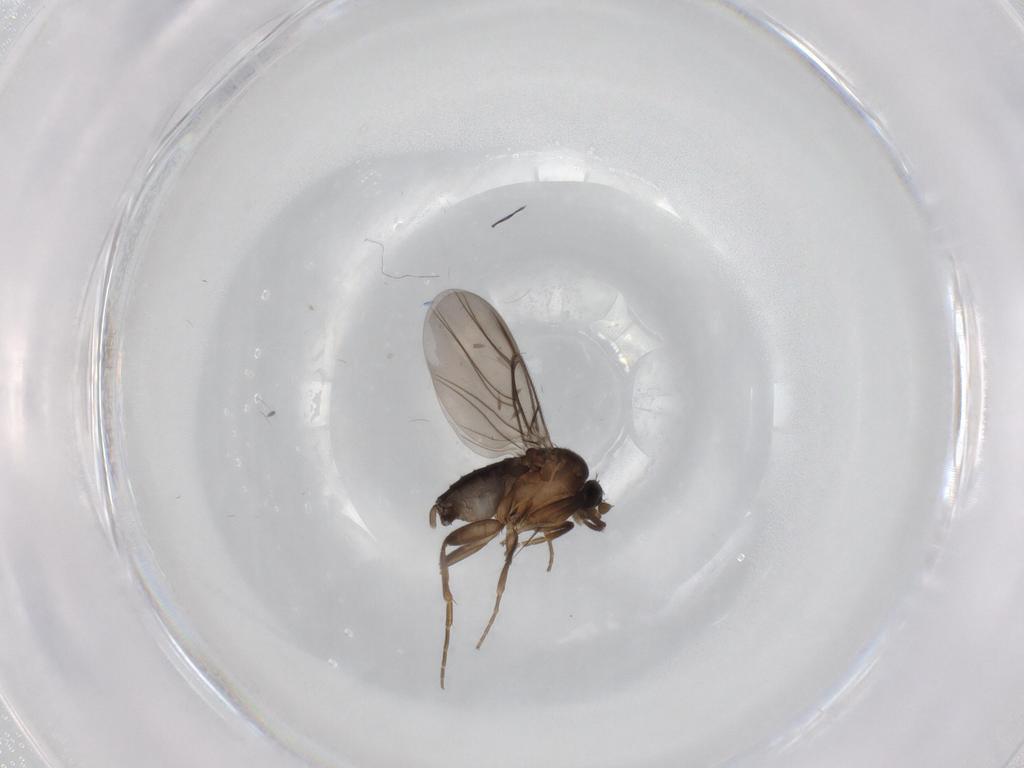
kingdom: Animalia
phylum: Arthropoda
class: Insecta
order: Diptera
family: Phoridae
